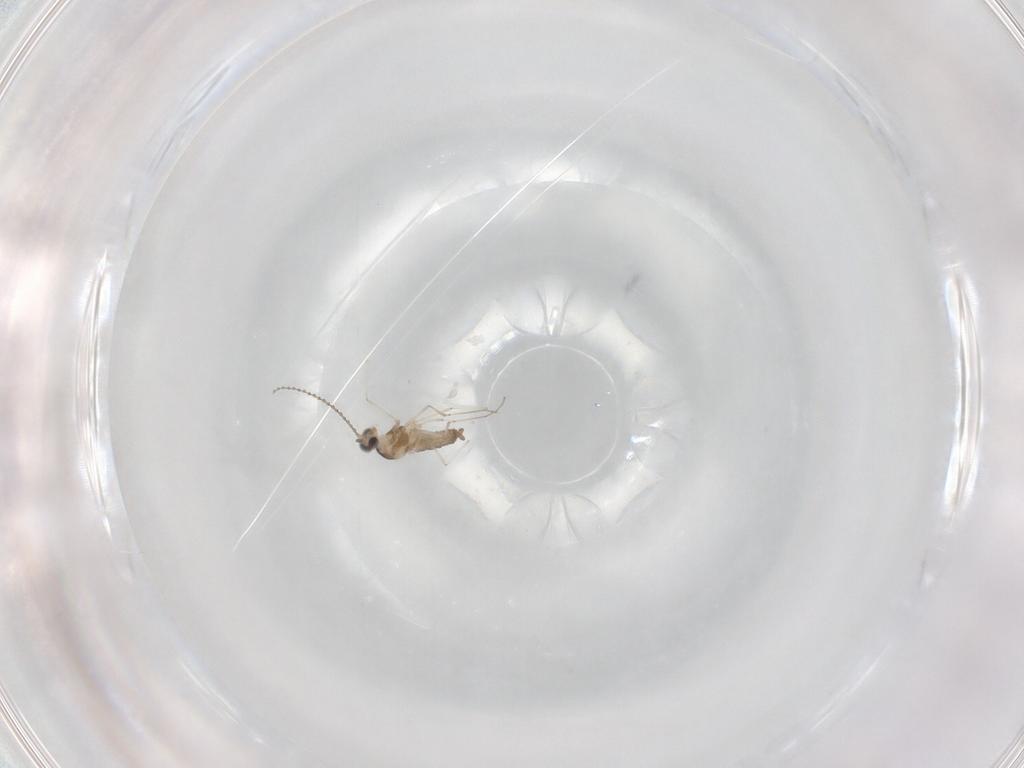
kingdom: Animalia
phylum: Arthropoda
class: Insecta
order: Diptera
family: Cecidomyiidae
